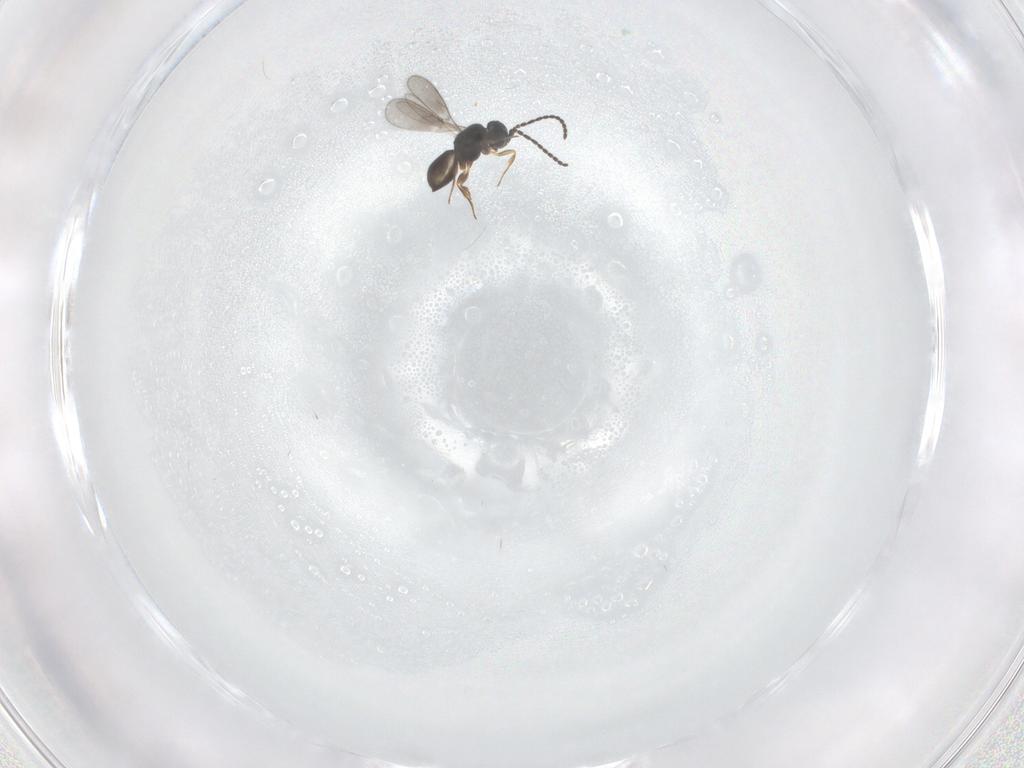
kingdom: Animalia
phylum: Arthropoda
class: Insecta
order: Hymenoptera
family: Scelionidae
